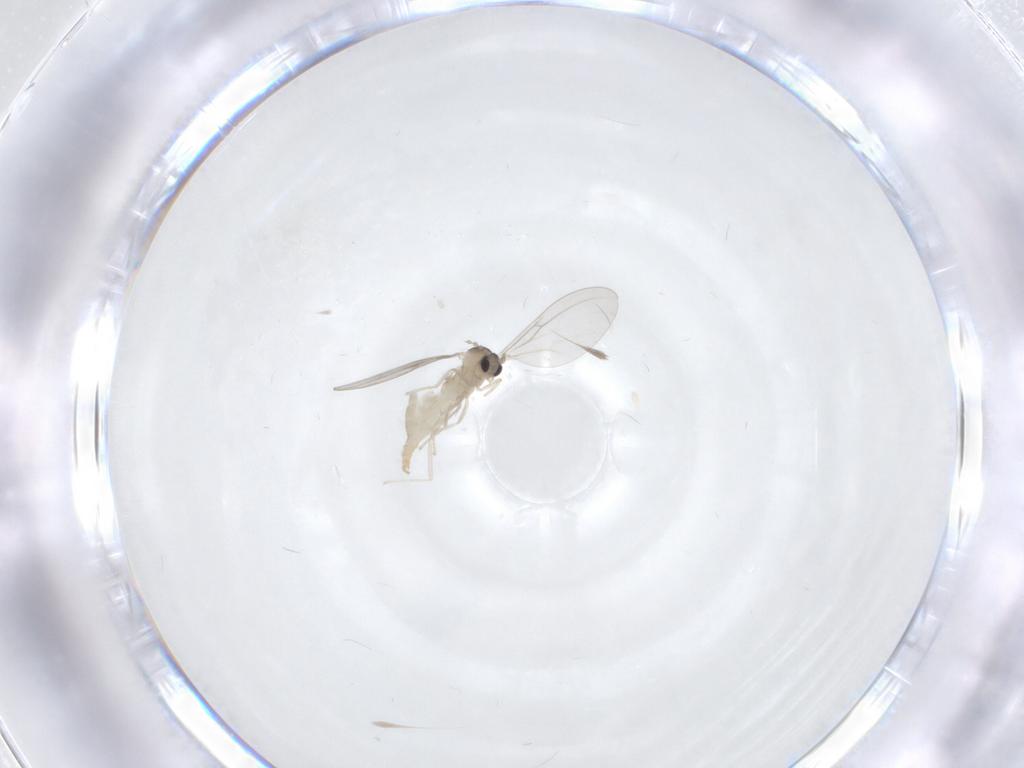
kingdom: Animalia
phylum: Arthropoda
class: Insecta
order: Diptera
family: Cecidomyiidae
